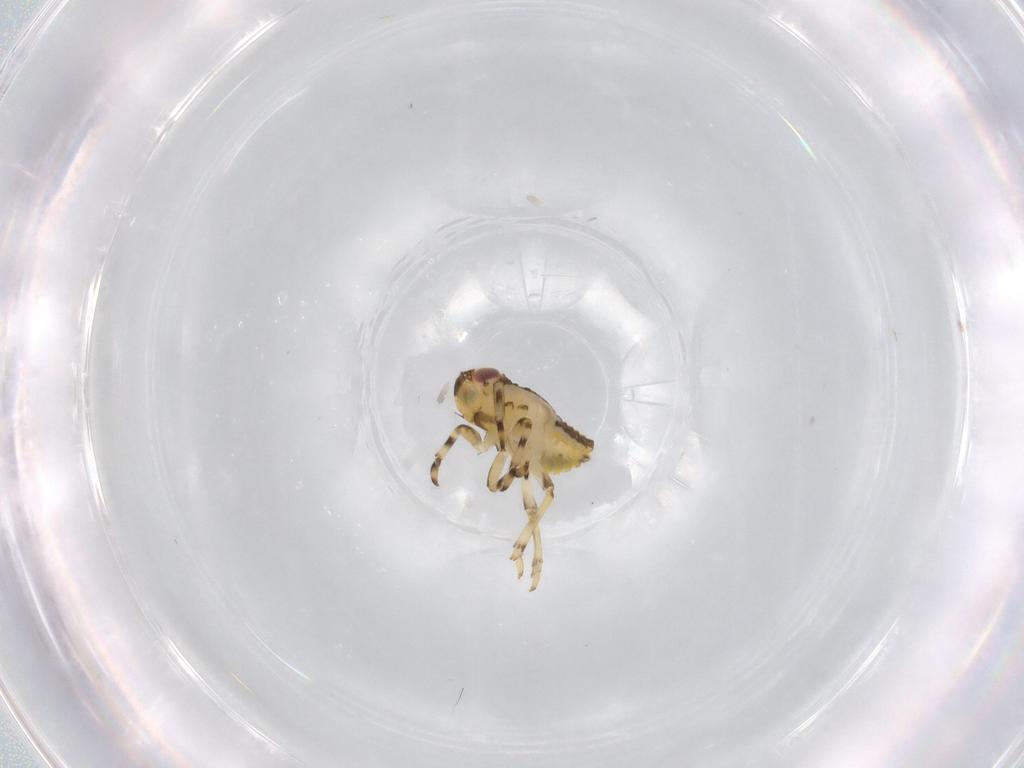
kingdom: Animalia
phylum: Arthropoda
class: Insecta
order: Hemiptera
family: Issidae
